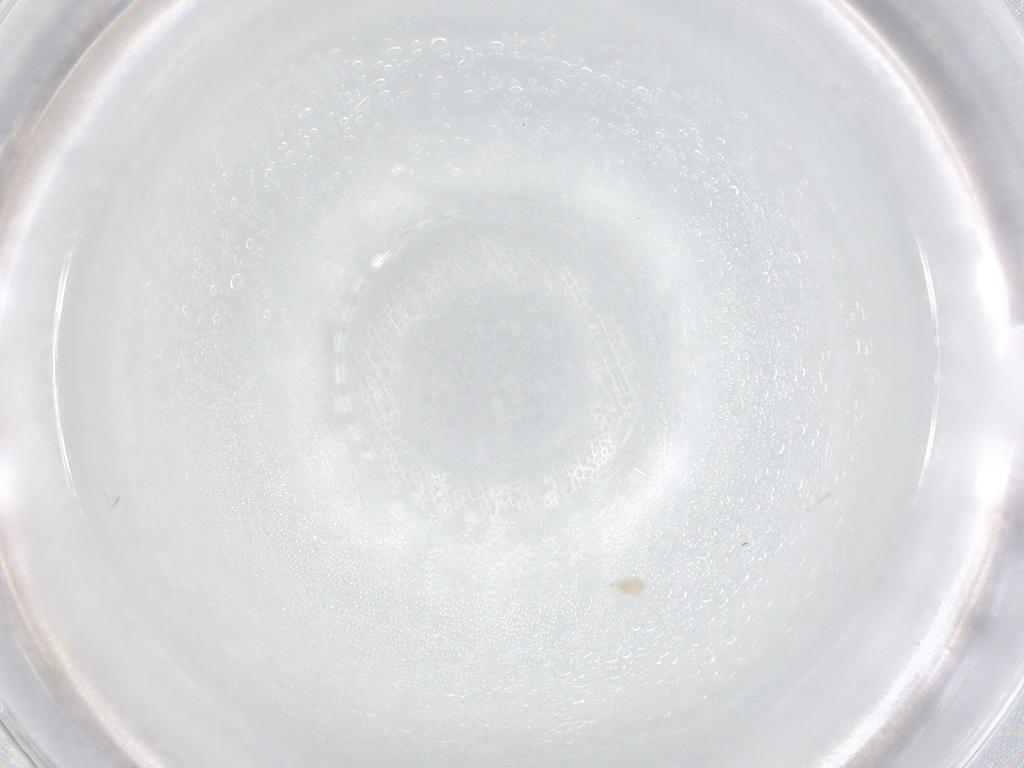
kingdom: Animalia
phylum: Arthropoda
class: Arachnida
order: Trombidiformes
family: Eupodidae
